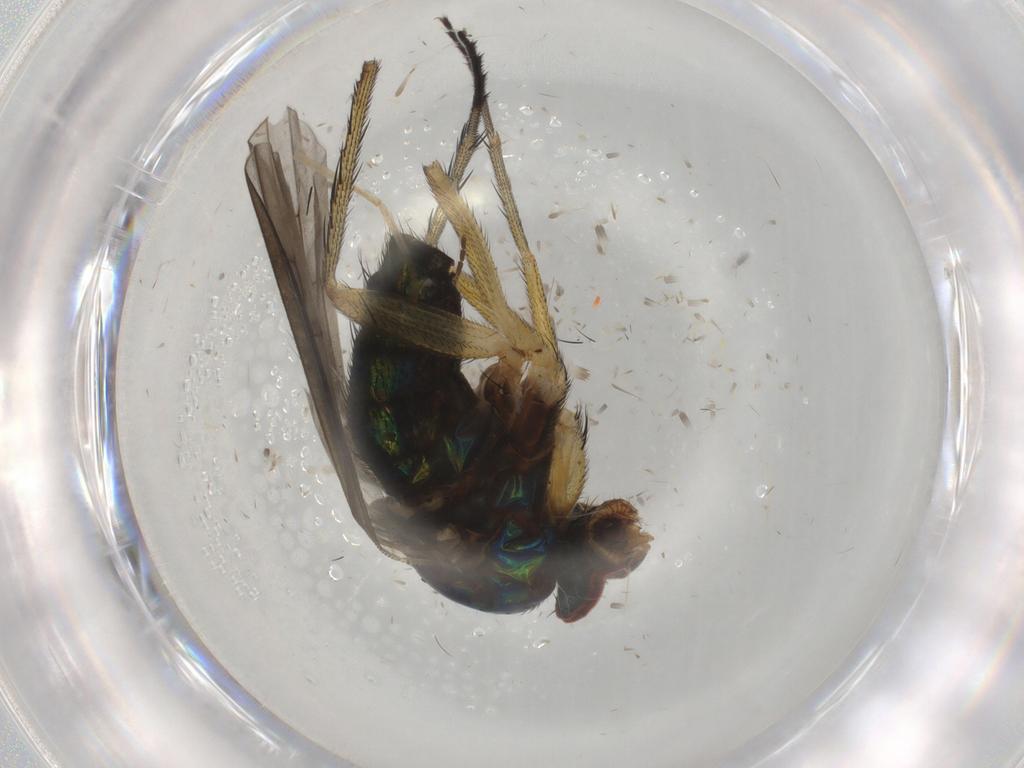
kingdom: Animalia
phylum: Arthropoda
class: Insecta
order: Diptera
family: Dolichopodidae
